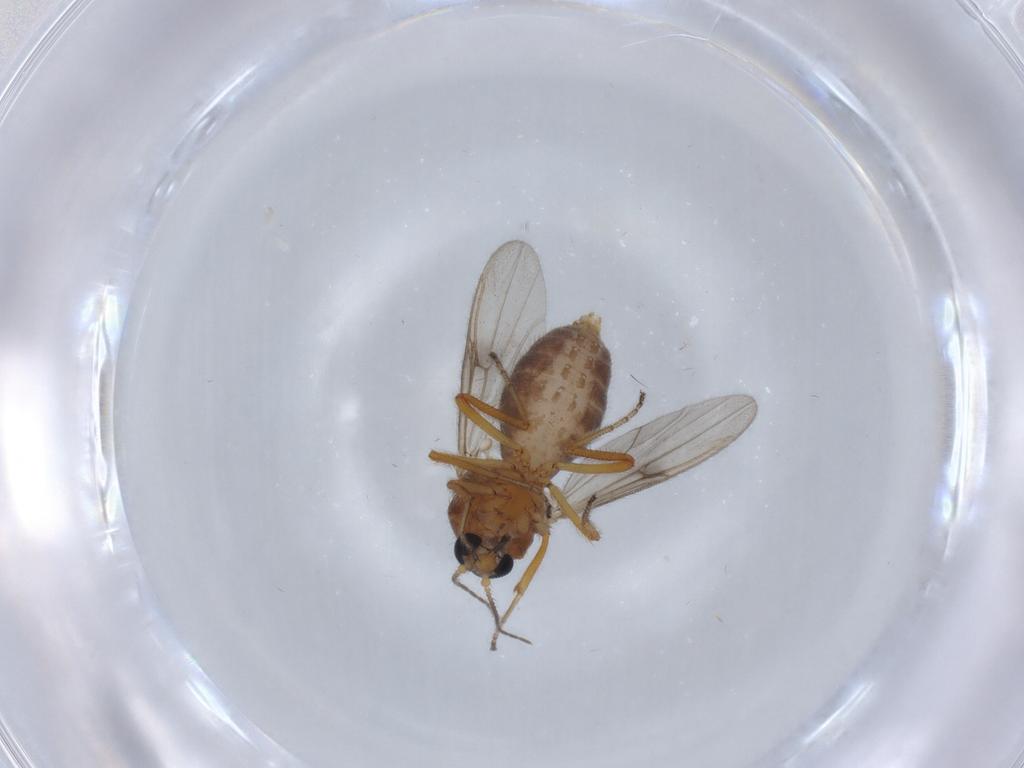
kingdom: Animalia
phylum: Arthropoda
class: Insecta
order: Diptera
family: Ceratopogonidae
